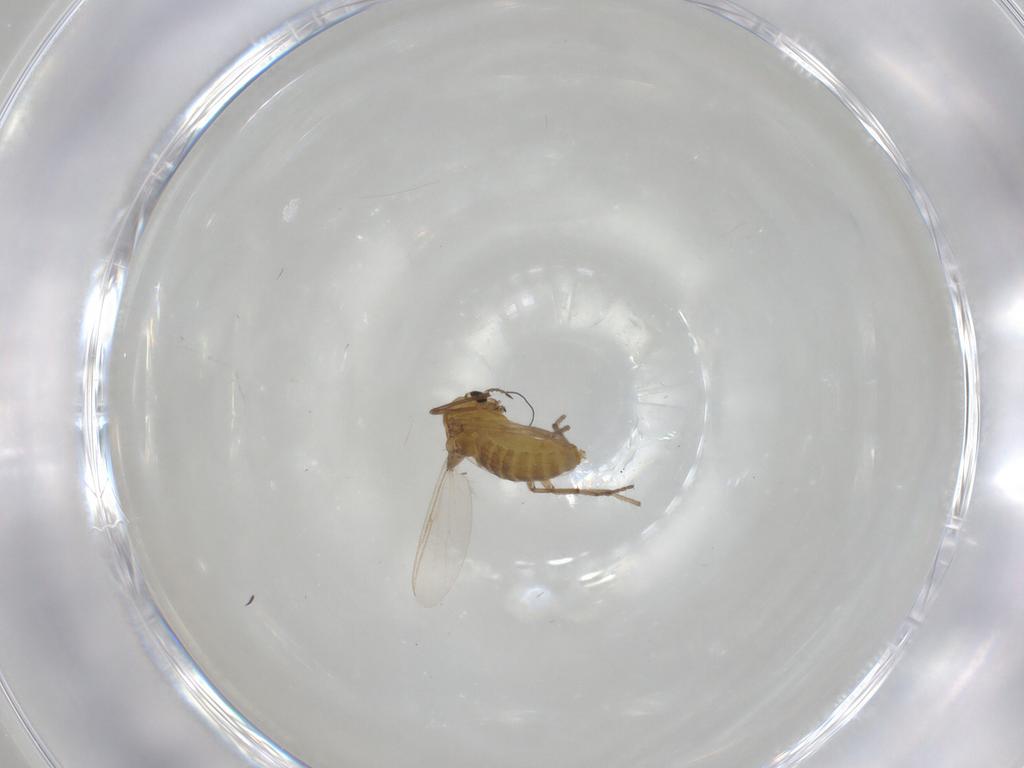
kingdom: Animalia
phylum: Arthropoda
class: Insecta
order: Diptera
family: Chironomidae
